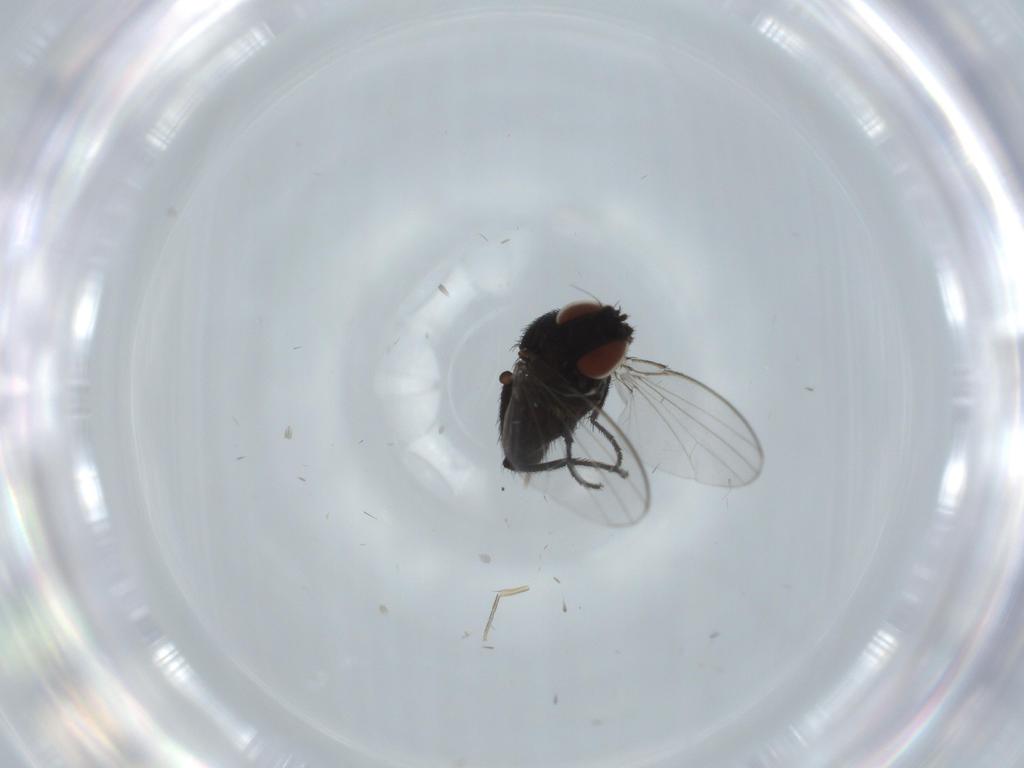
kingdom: Animalia
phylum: Arthropoda
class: Insecta
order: Diptera
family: Phoridae
